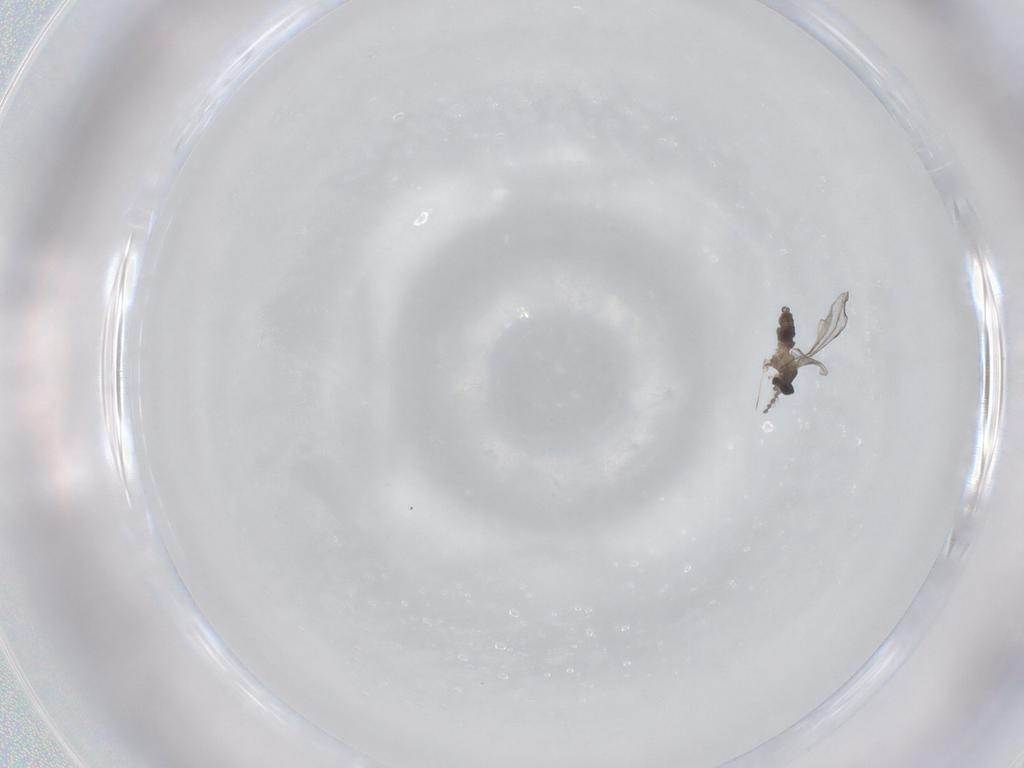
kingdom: Animalia
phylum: Arthropoda
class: Insecta
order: Diptera
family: Cecidomyiidae
